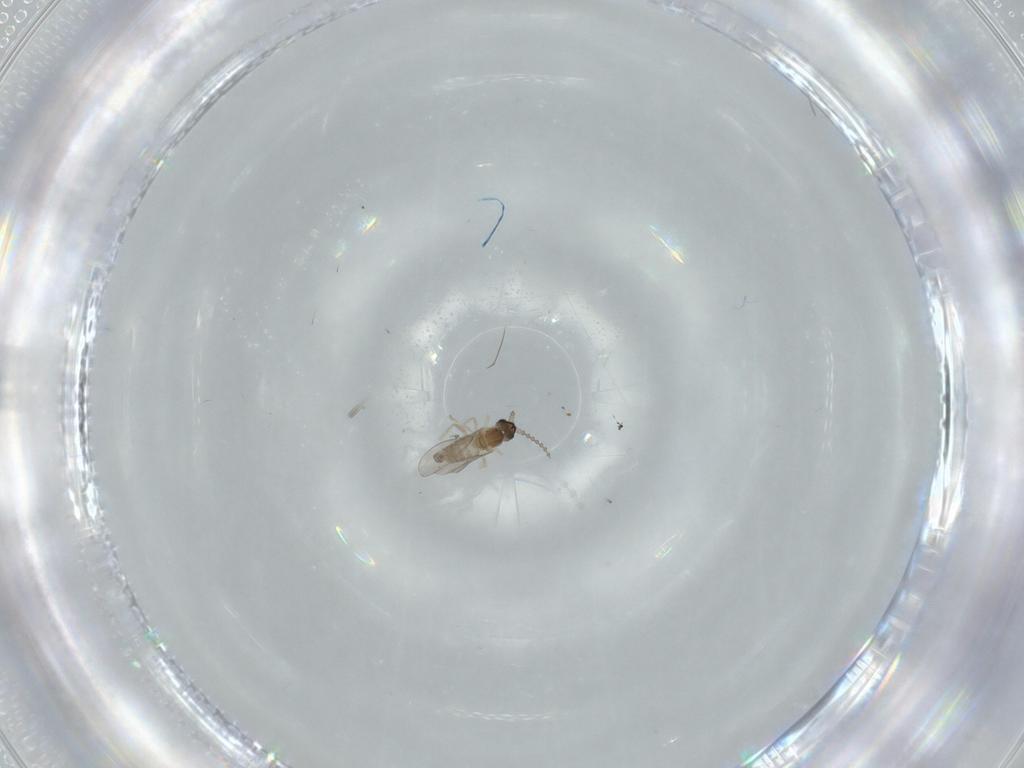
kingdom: Animalia
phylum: Arthropoda
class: Insecta
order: Diptera
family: Cecidomyiidae
